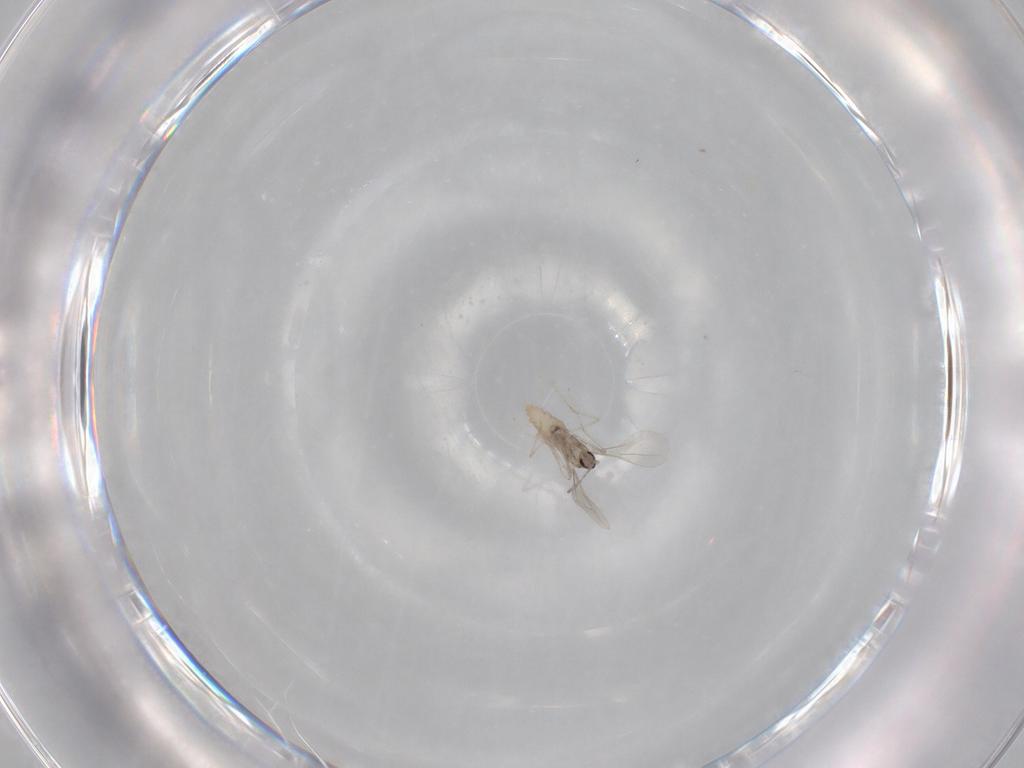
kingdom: Animalia
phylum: Arthropoda
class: Insecta
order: Diptera
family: Cecidomyiidae
